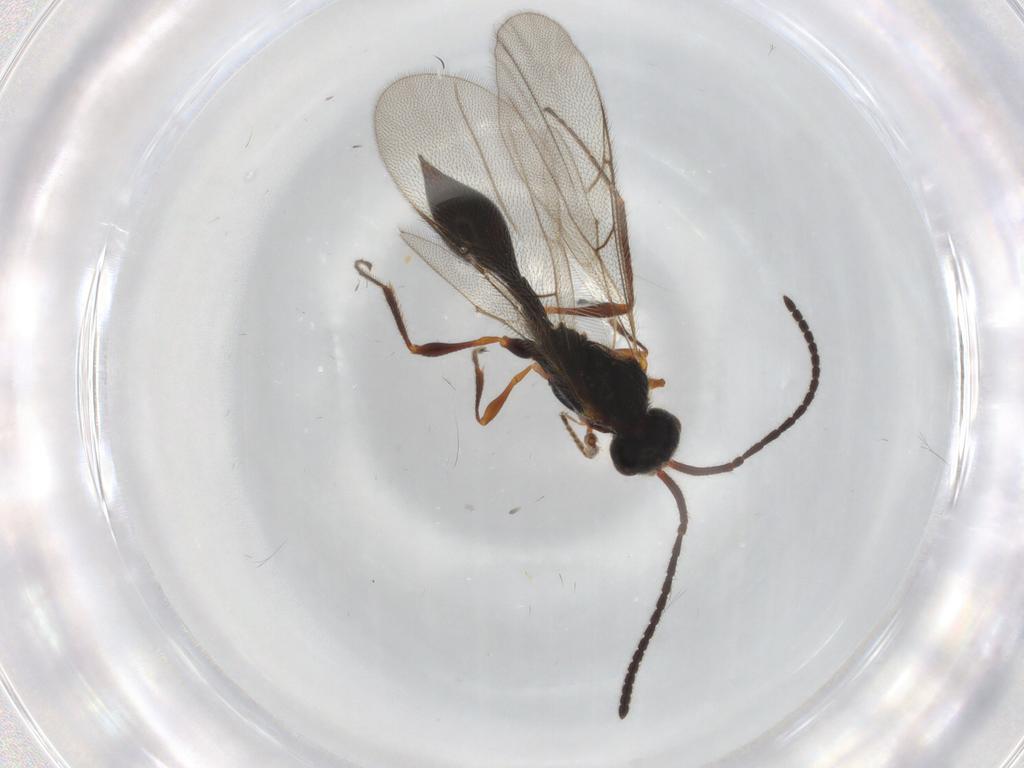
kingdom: Animalia
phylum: Arthropoda
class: Insecta
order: Hymenoptera
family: Diapriidae
